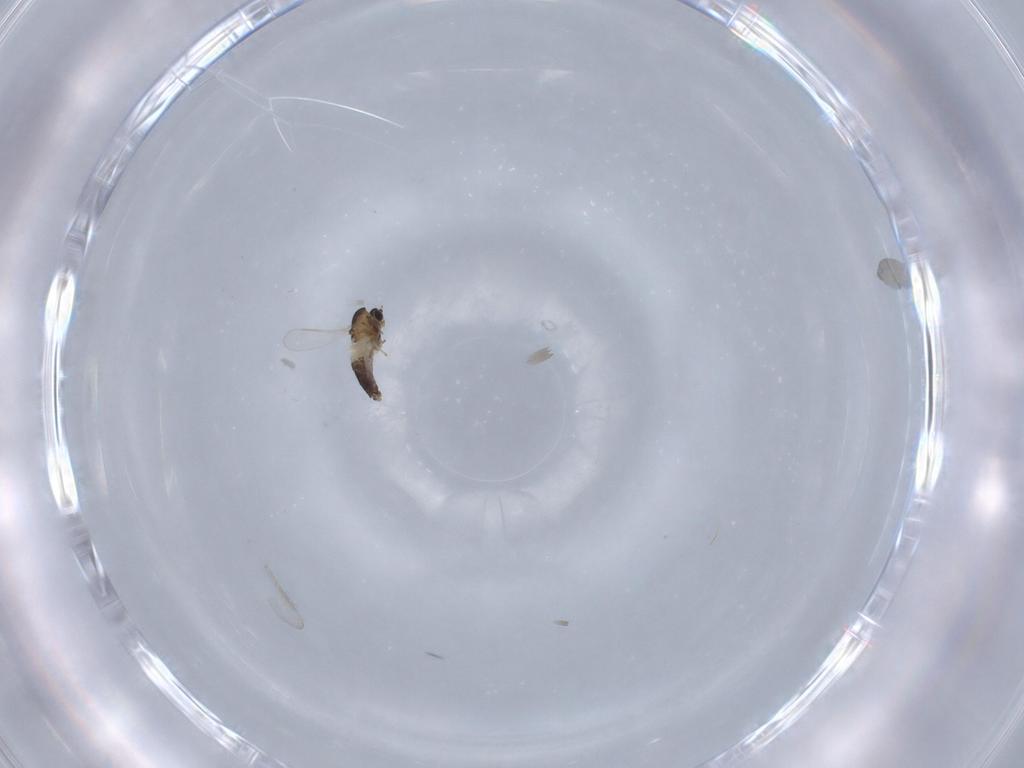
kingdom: Animalia
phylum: Arthropoda
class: Insecta
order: Diptera
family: Chironomidae
